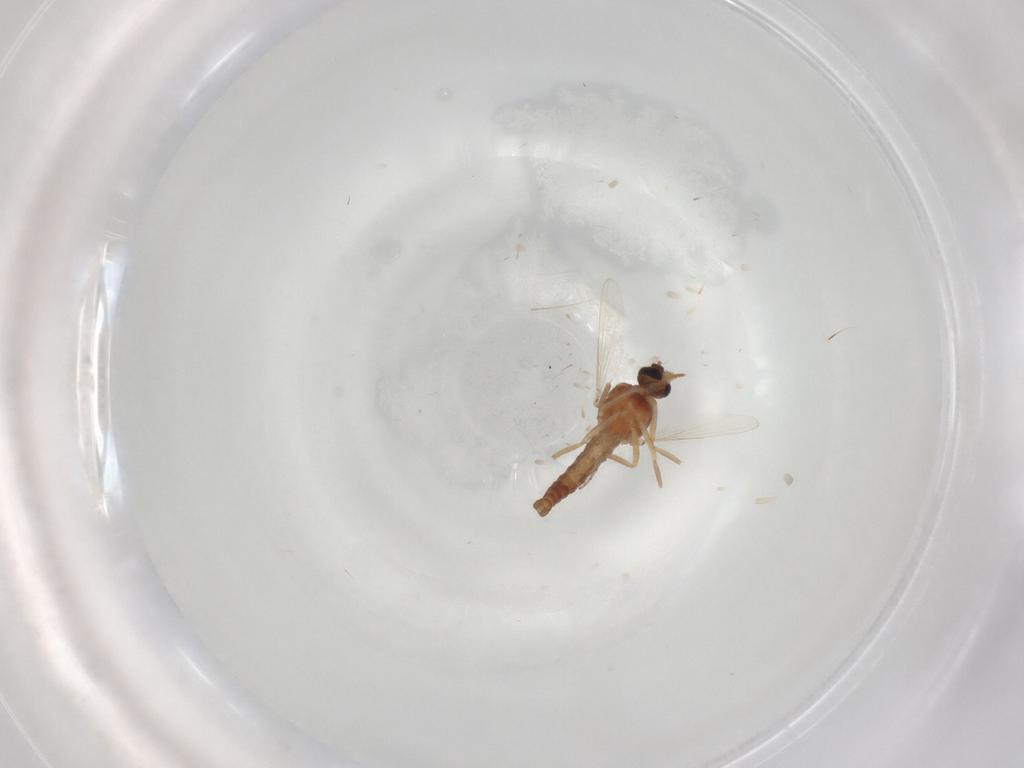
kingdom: Animalia
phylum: Arthropoda
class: Insecta
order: Diptera
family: Ceratopogonidae
